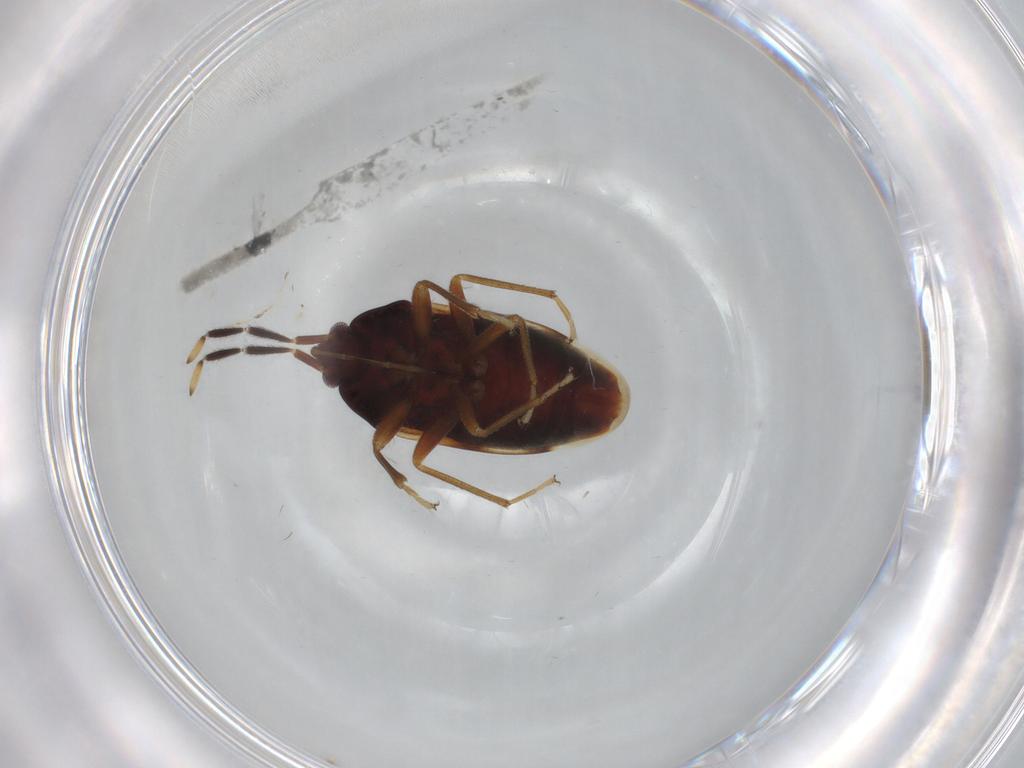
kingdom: Animalia
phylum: Arthropoda
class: Insecta
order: Hemiptera
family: Rhyparochromidae
